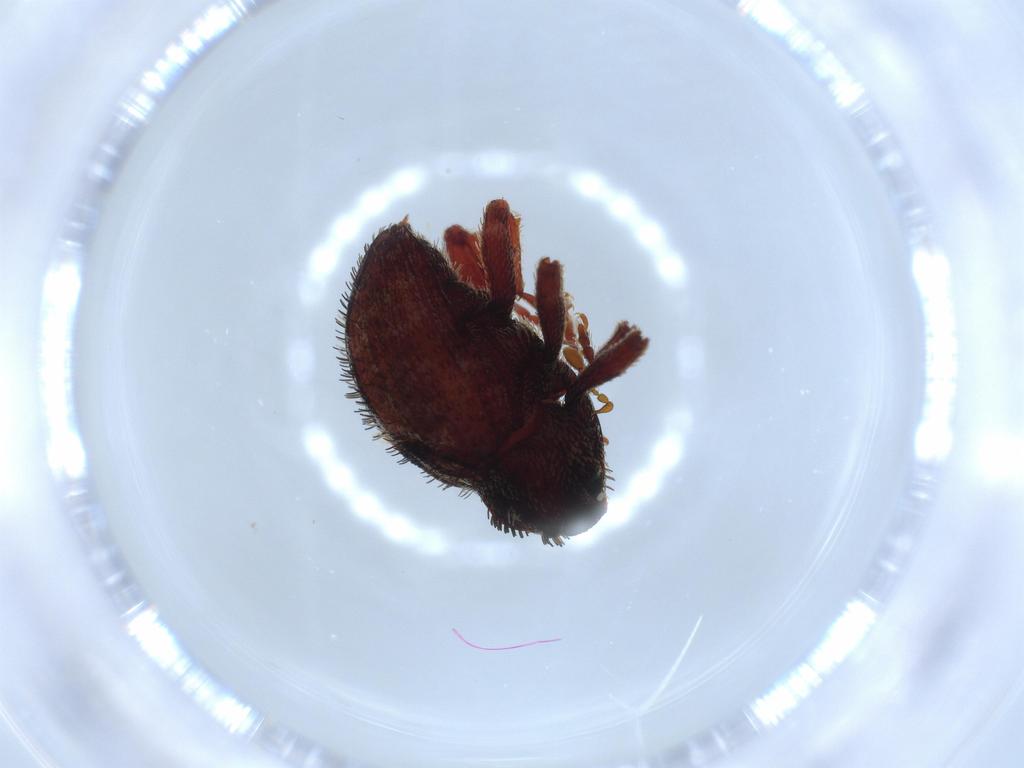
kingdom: Animalia
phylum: Arthropoda
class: Insecta
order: Coleoptera
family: Curculionidae
